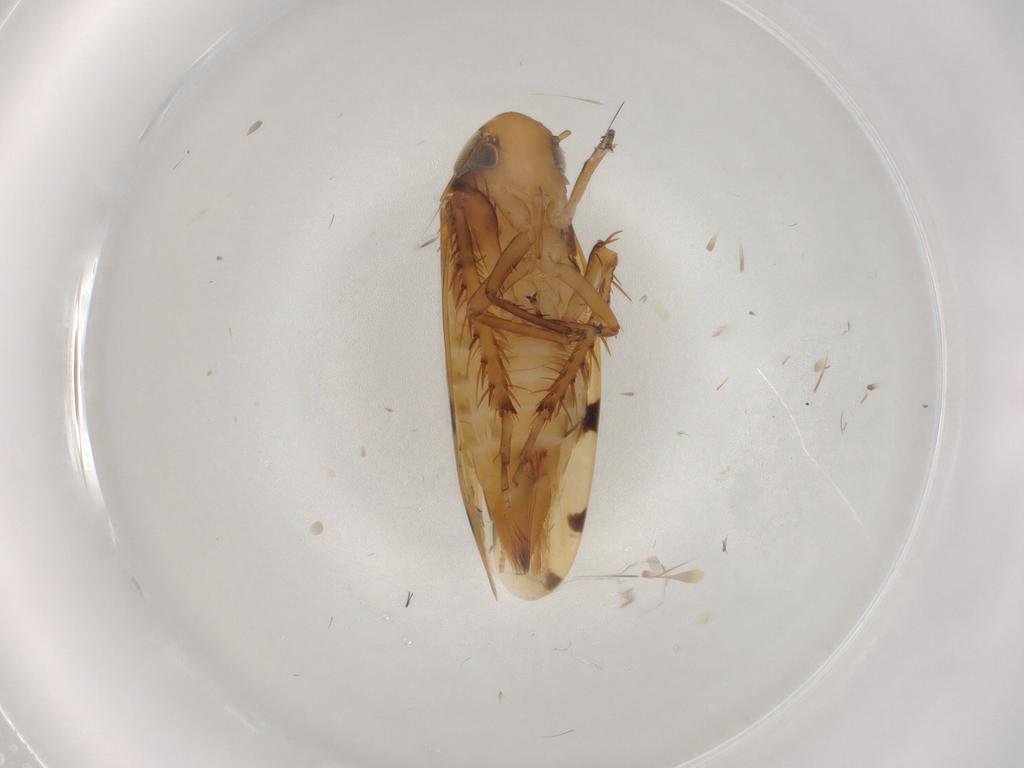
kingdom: Animalia
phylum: Arthropoda
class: Insecta
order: Hemiptera
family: Cicadellidae
